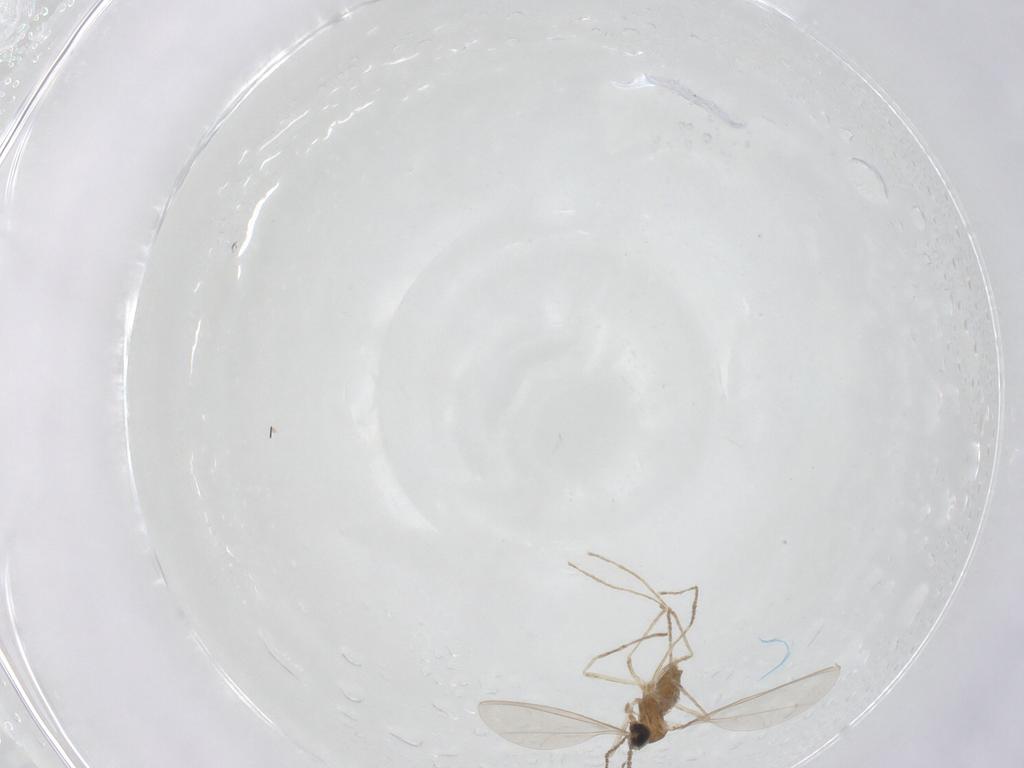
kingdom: Animalia
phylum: Arthropoda
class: Insecta
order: Diptera
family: Cecidomyiidae
